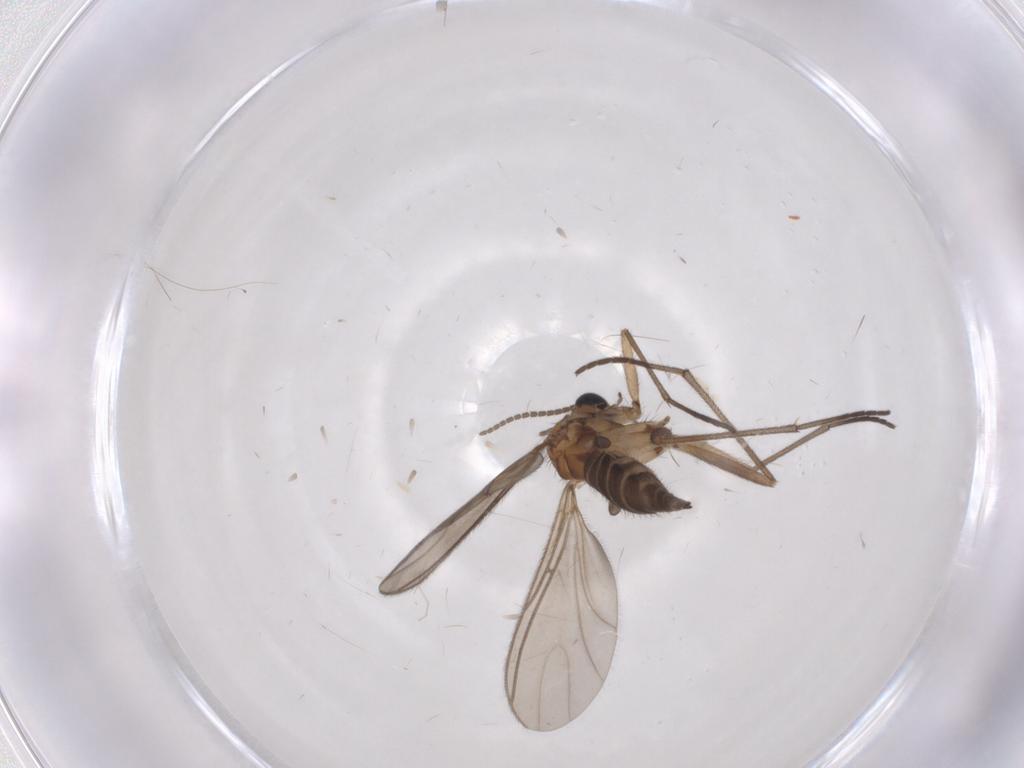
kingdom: Animalia
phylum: Arthropoda
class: Insecta
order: Diptera
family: Sciaridae
